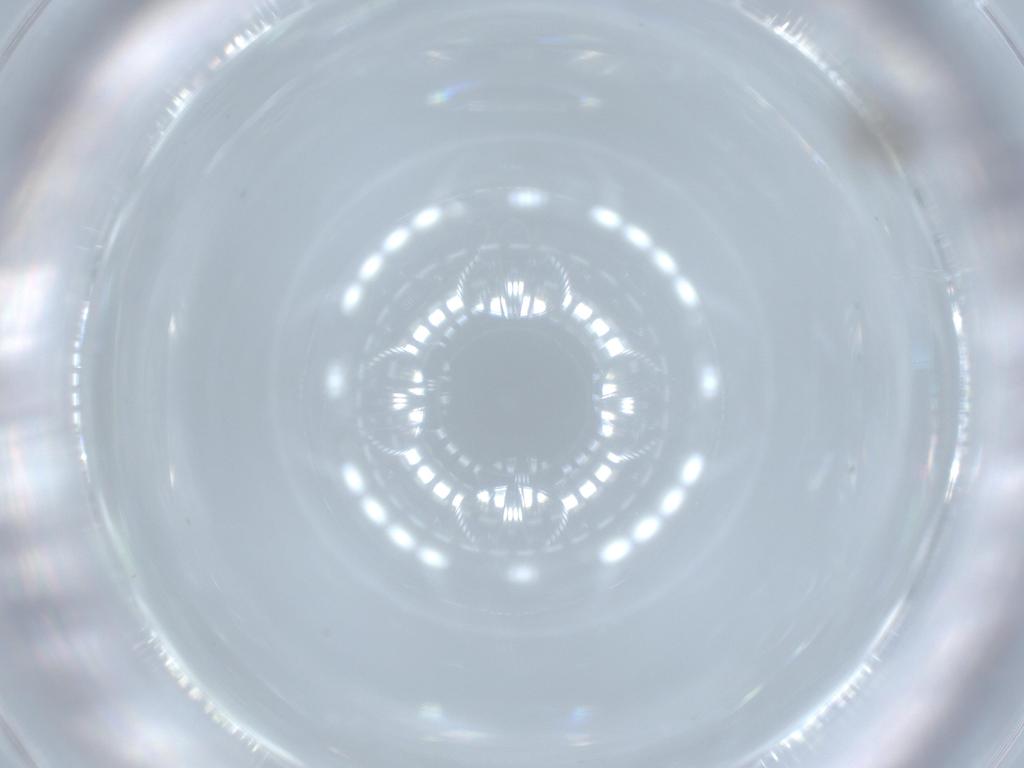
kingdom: Animalia
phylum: Arthropoda
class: Insecta
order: Hymenoptera
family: Platygastridae
